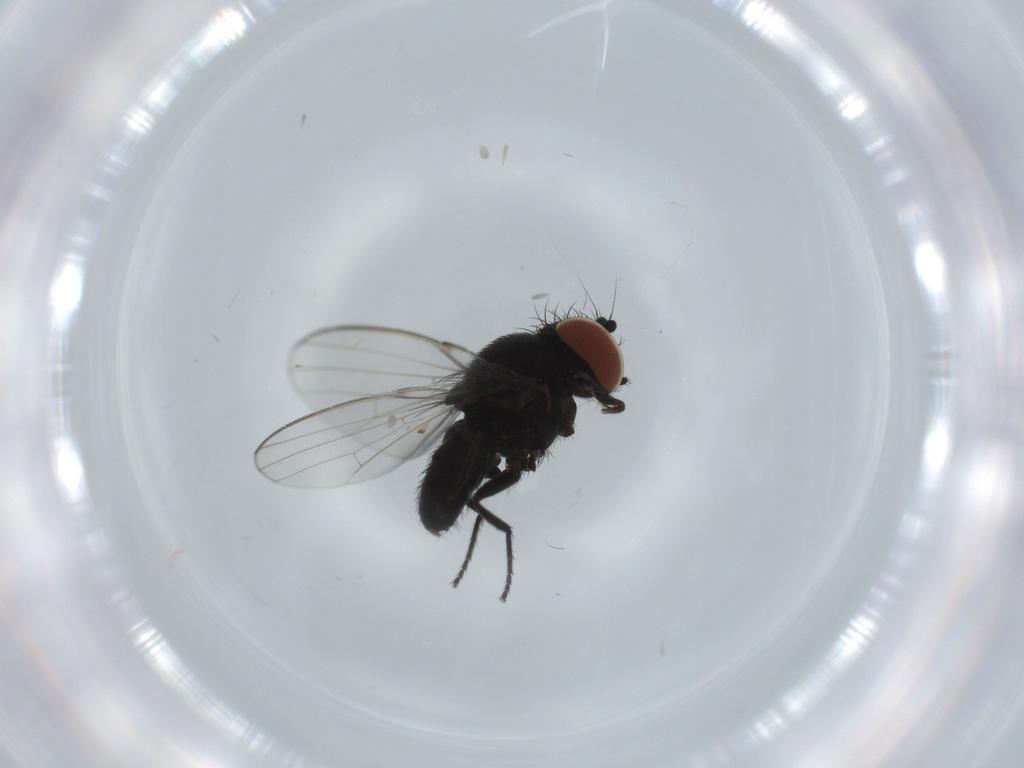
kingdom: Animalia
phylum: Arthropoda
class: Insecta
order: Diptera
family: Milichiidae
